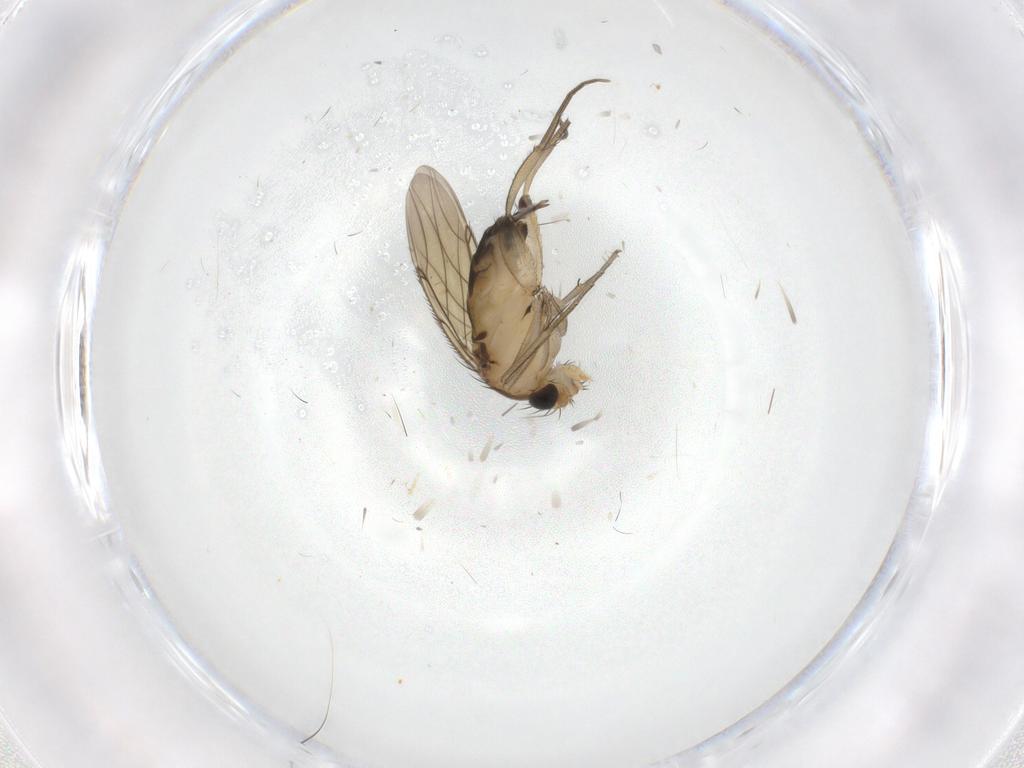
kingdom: Animalia
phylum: Arthropoda
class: Insecta
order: Diptera
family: Phoridae
